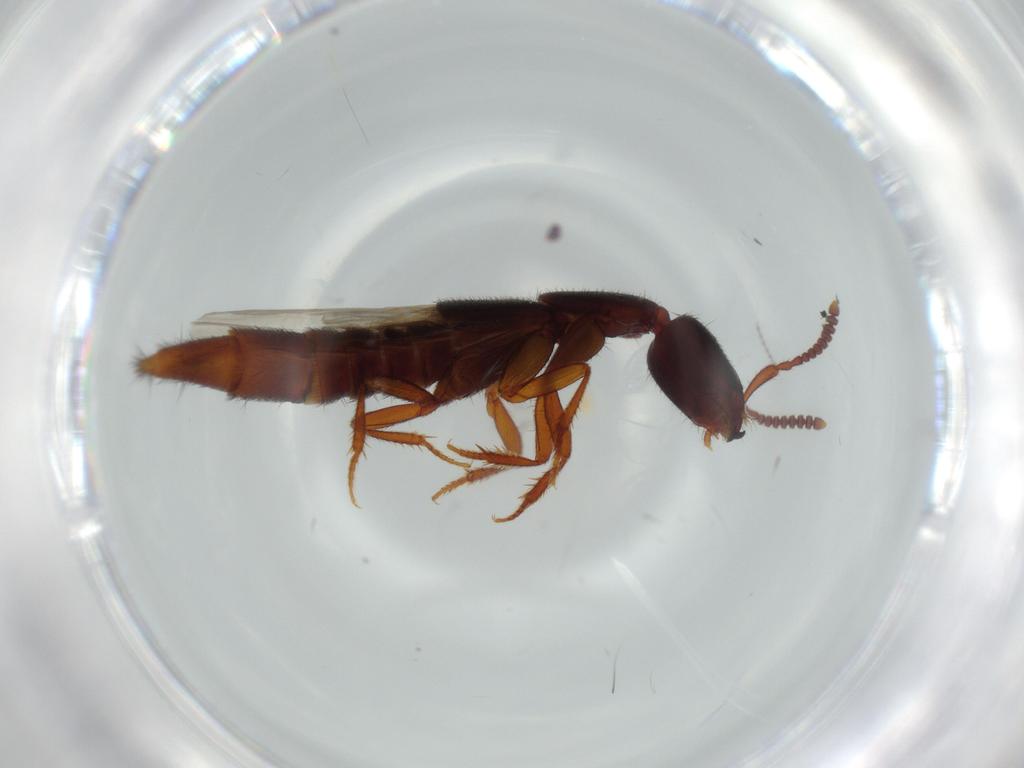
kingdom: Animalia
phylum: Arthropoda
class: Insecta
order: Coleoptera
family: Staphylinidae
